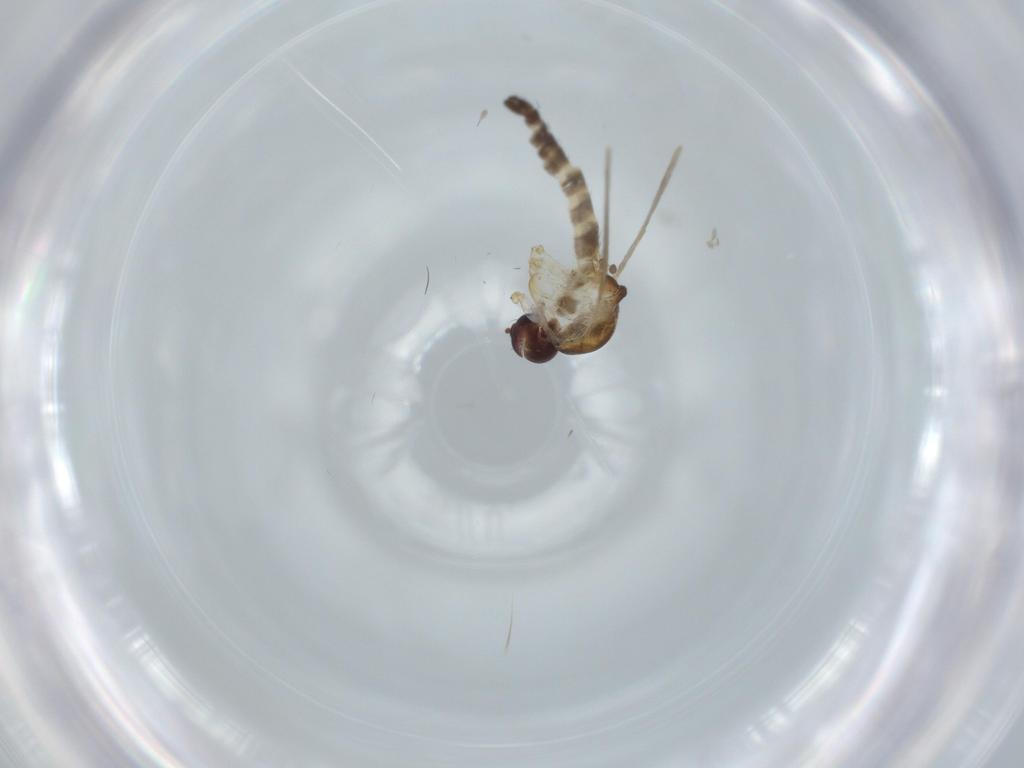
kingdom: Animalia
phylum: Arthropoda
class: Insecta
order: Diptera
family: Ceratopogonidae
